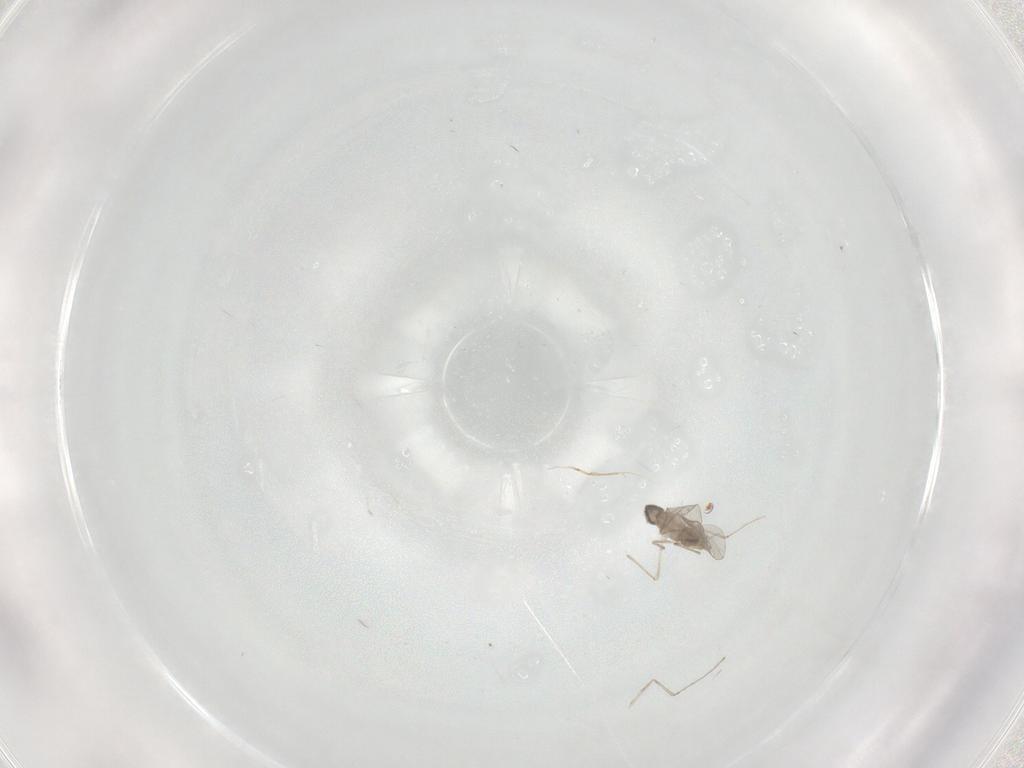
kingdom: Animalia
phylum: Arthropoda
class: Insecta
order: Diptera
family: Cecidomyiidae
